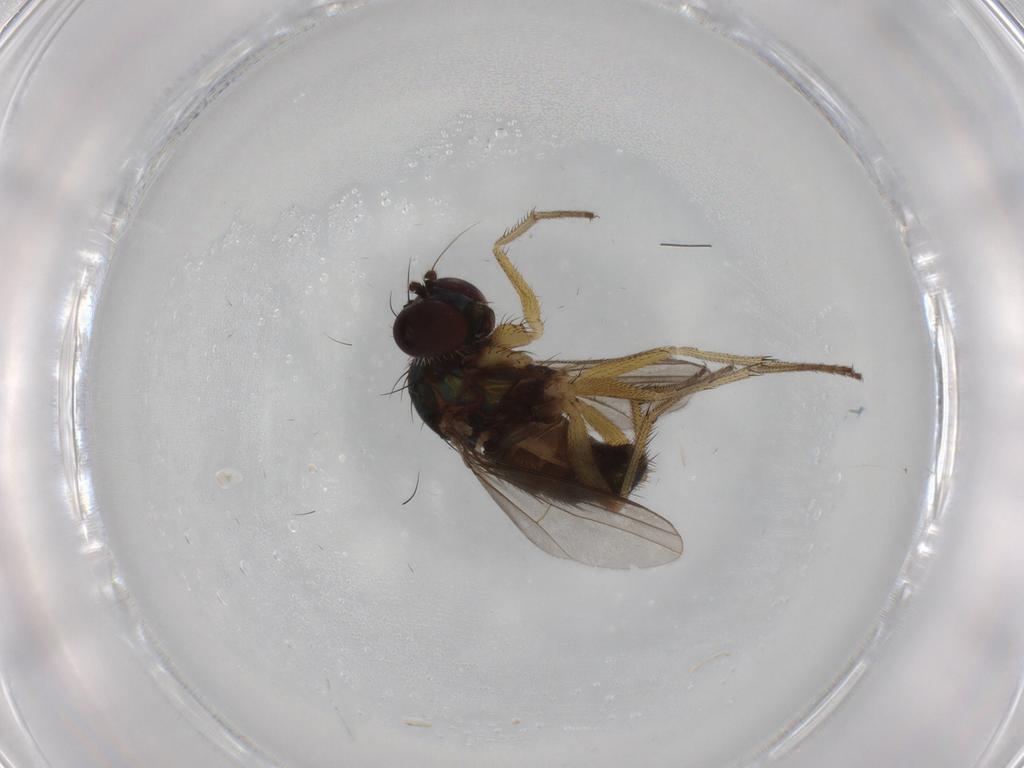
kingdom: Animalia
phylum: Arthropoda
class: Insecta
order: Diptera
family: Dolichopodidae
